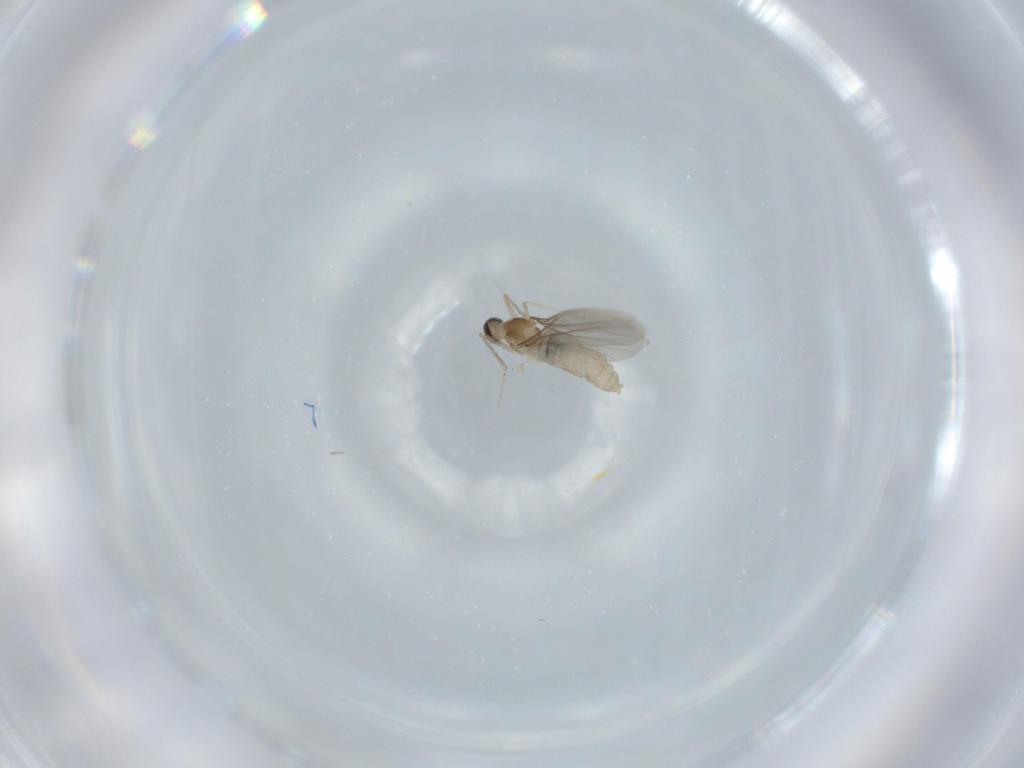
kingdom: Animalia
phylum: Arthropoda
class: Insecta
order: Diptera
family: Cecidomyiidae
